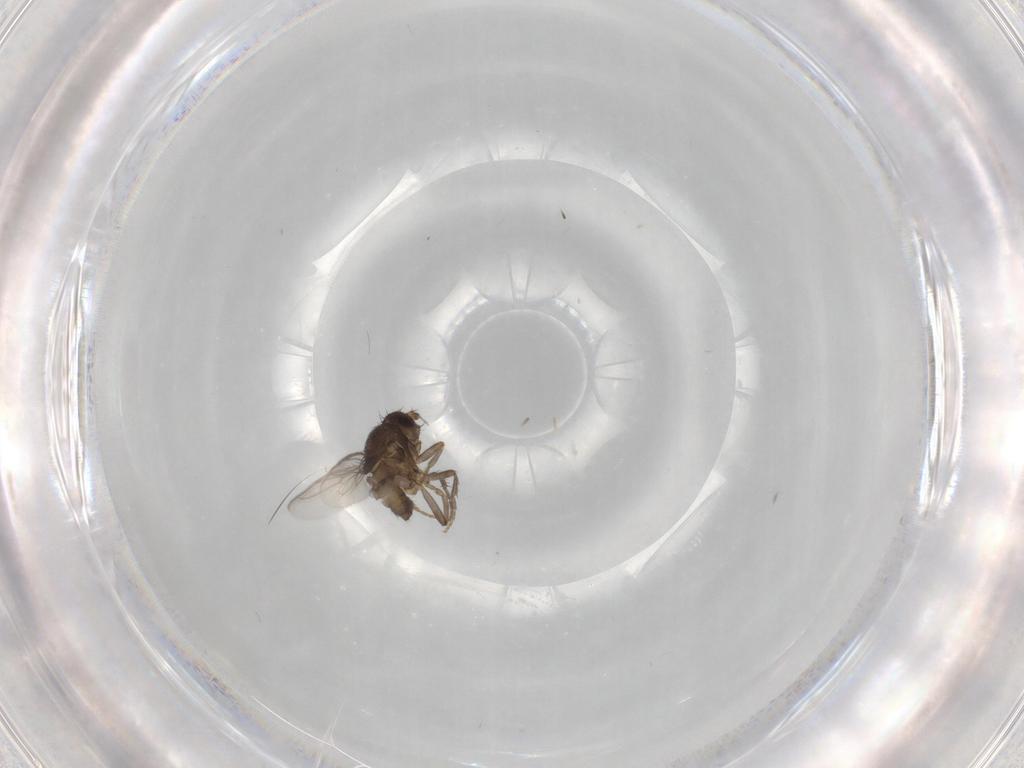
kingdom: Animalia
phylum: Arthropoda
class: Insecta
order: Diptera
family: Sphaeroceridae
